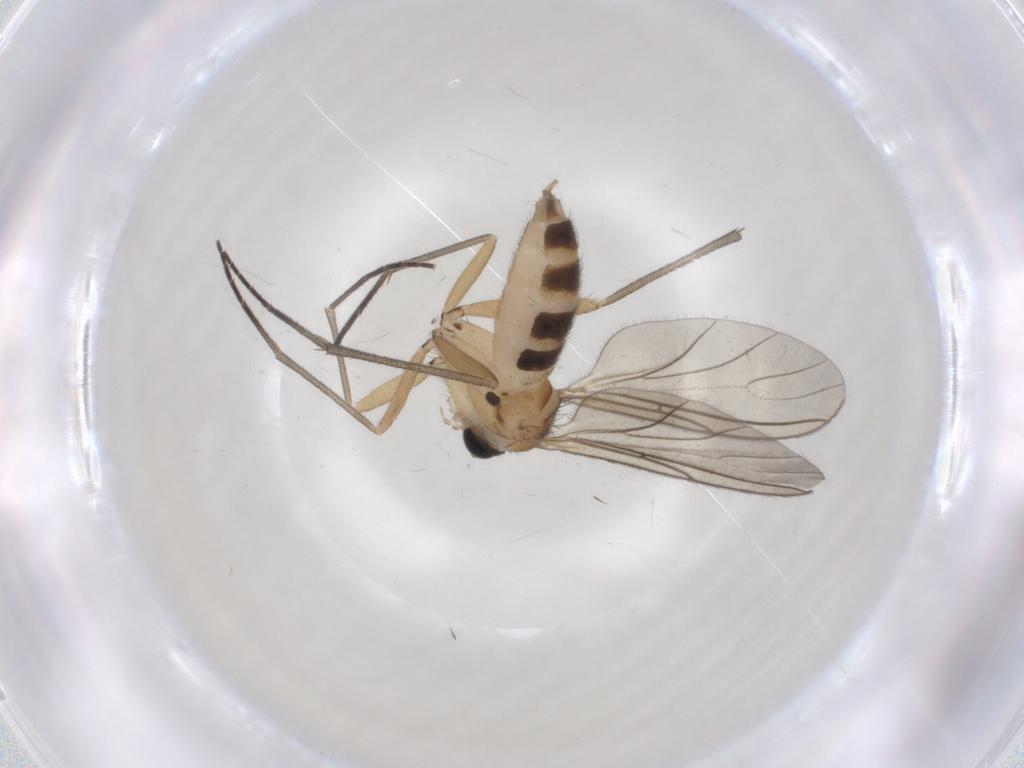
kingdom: Animalia
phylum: Arthropoda
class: Insecta
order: Diptera
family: Sciaridae
